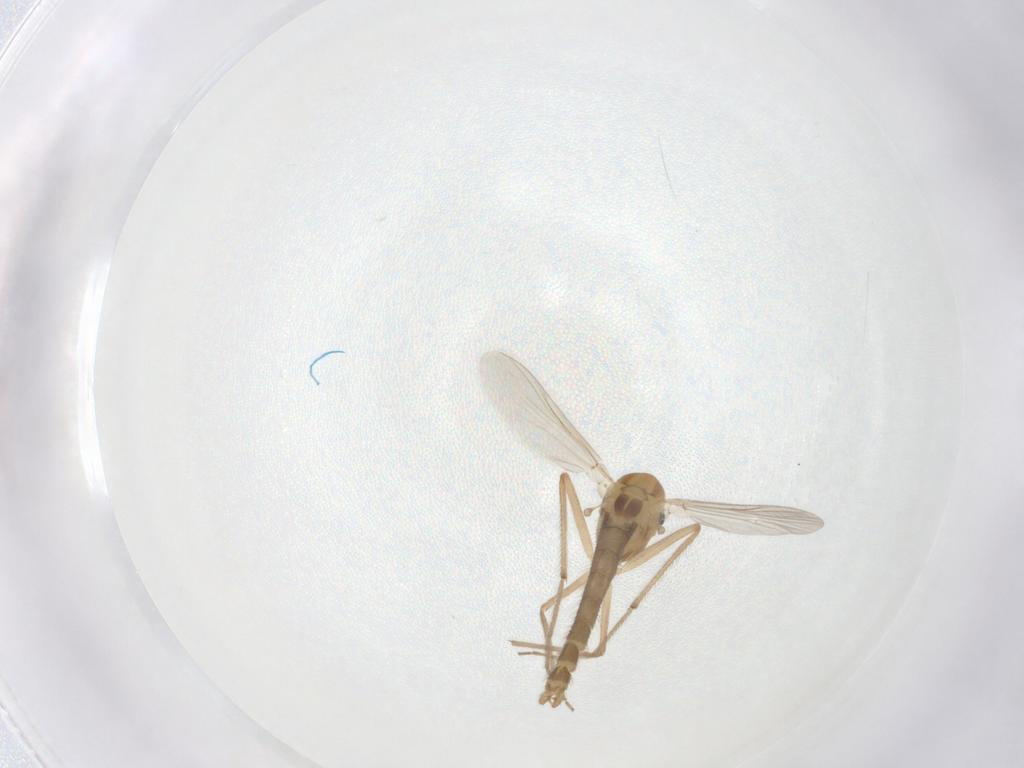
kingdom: Animalia
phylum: Arthropoda
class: Insecta
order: Diptera
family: Chironomidae
